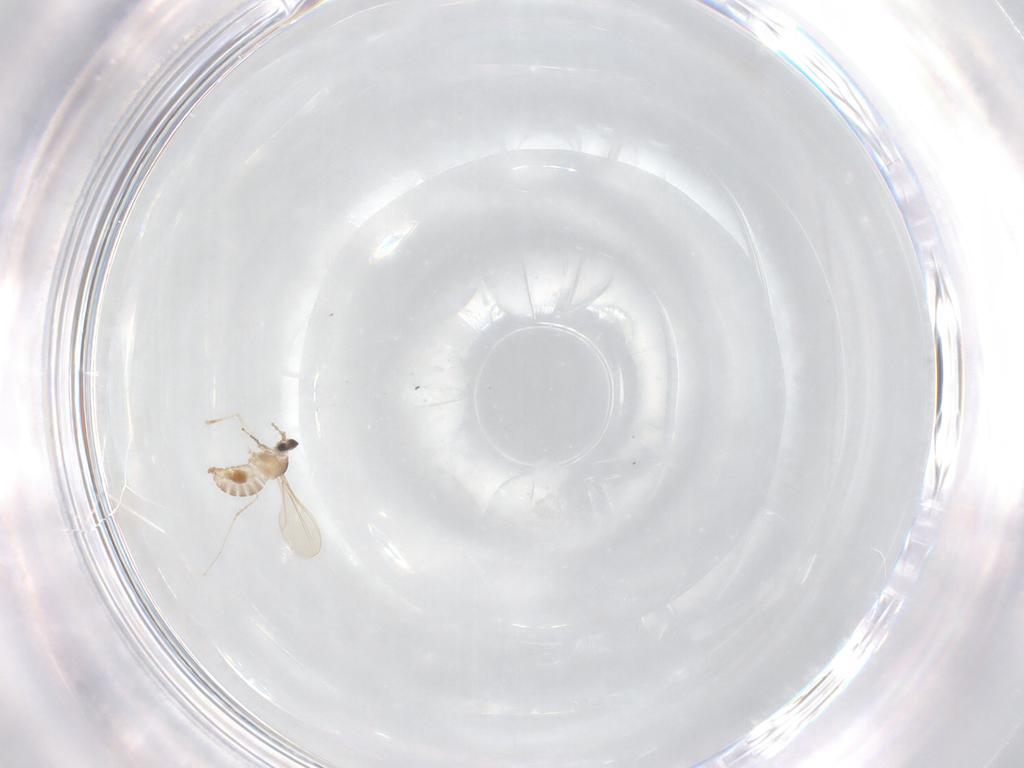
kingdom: Animalia
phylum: Arthropoda
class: Insecta
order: Diptera
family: Cecidomyiidae
